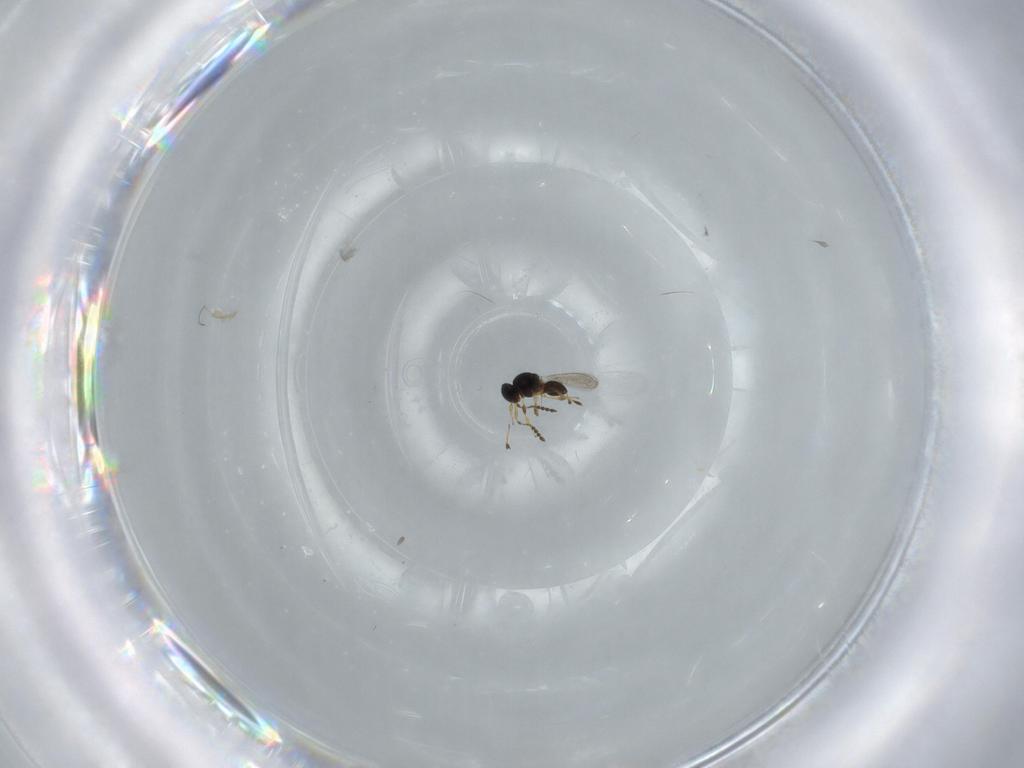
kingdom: Animalia
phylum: Arthropoda
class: Insecta
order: Hymenoptera
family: Platygastridae
